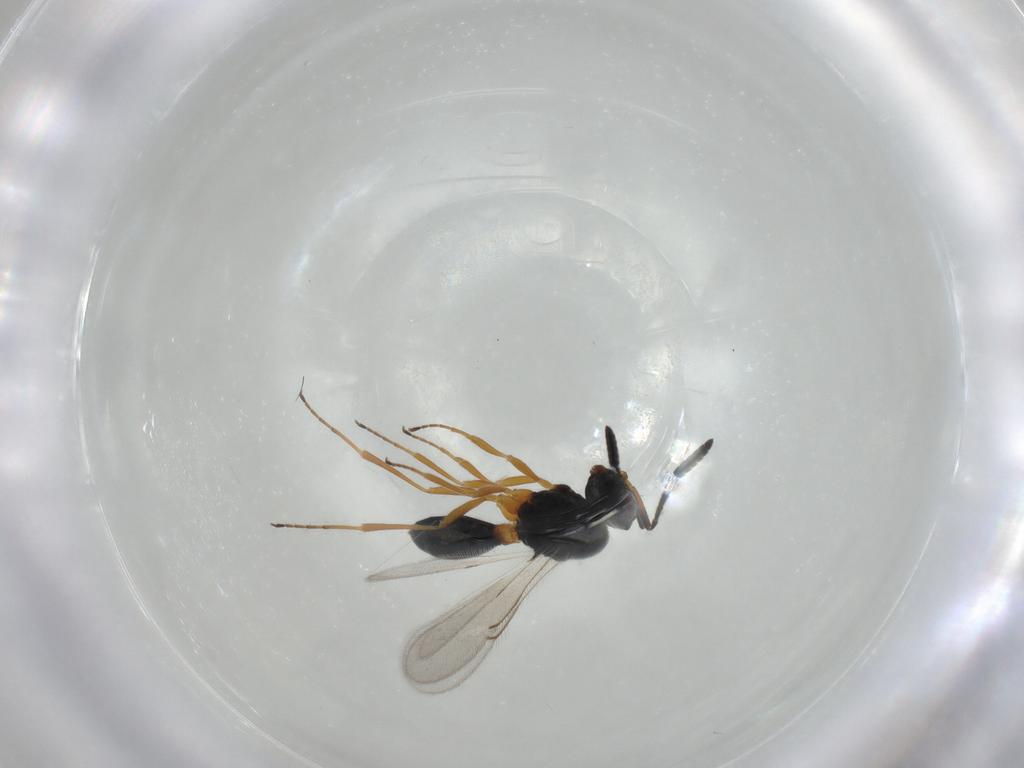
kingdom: Animalia
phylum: Arthropoda
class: Insecta
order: Hymenoptera
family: Scelionidae
